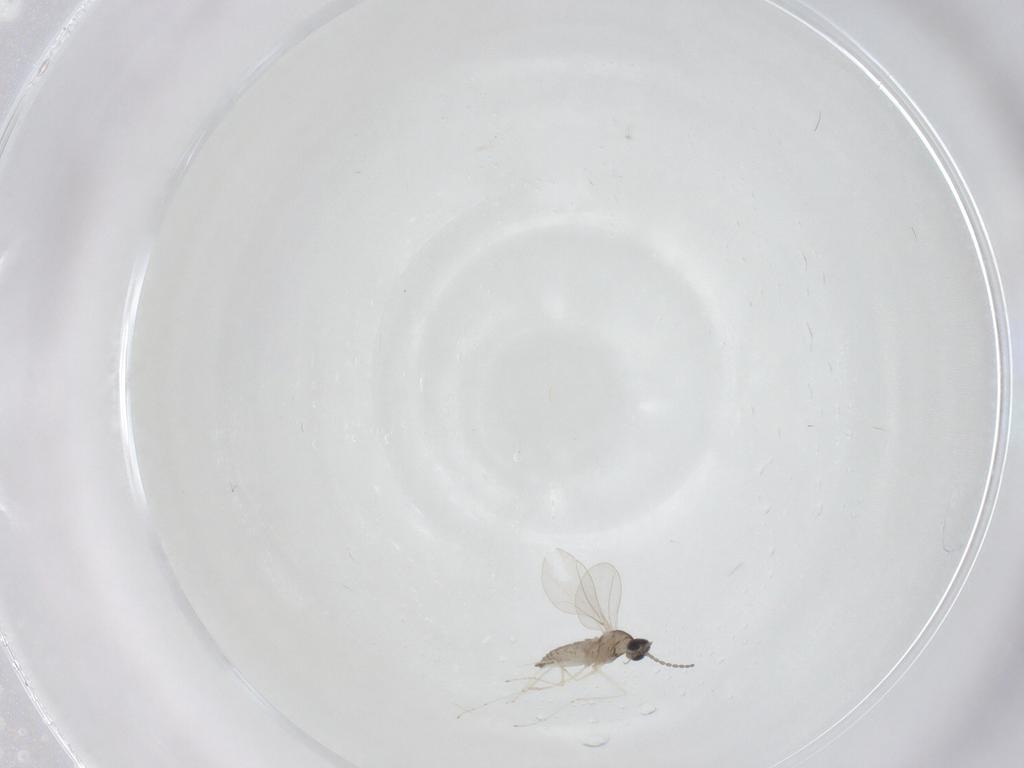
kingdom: Animalia
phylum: Arthropoda
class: Insecta
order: Diptera
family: Cecidomyiidae
